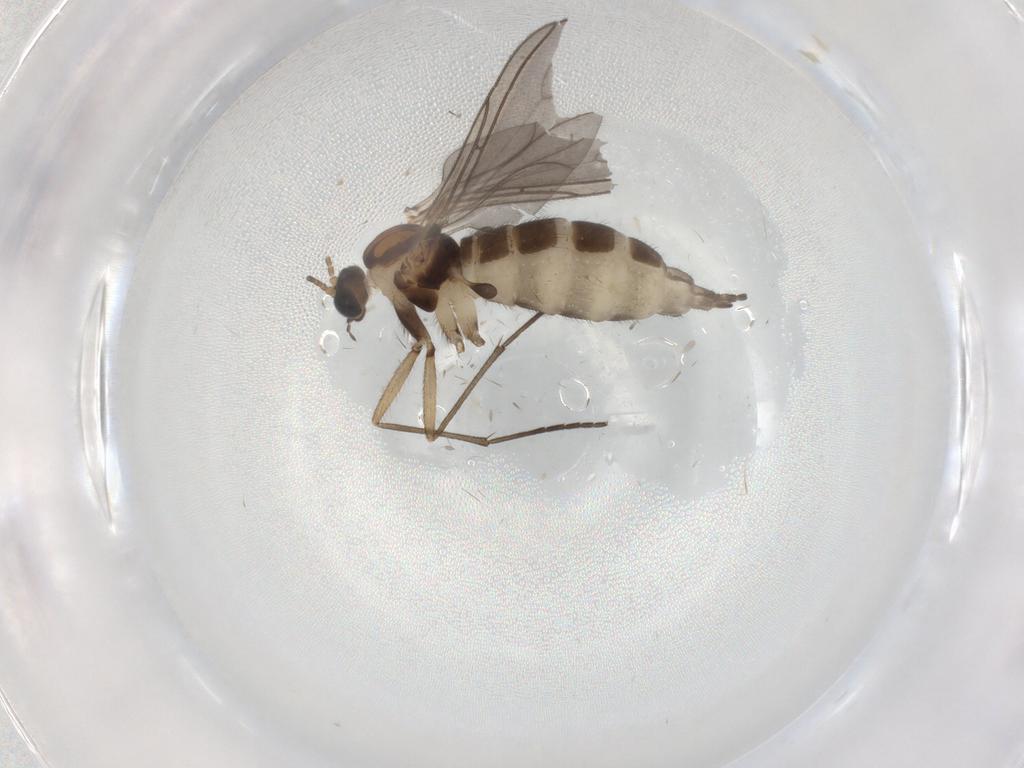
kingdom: Animalia
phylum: Arthropoda
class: Insecta
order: Diptera
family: Sciaridae
